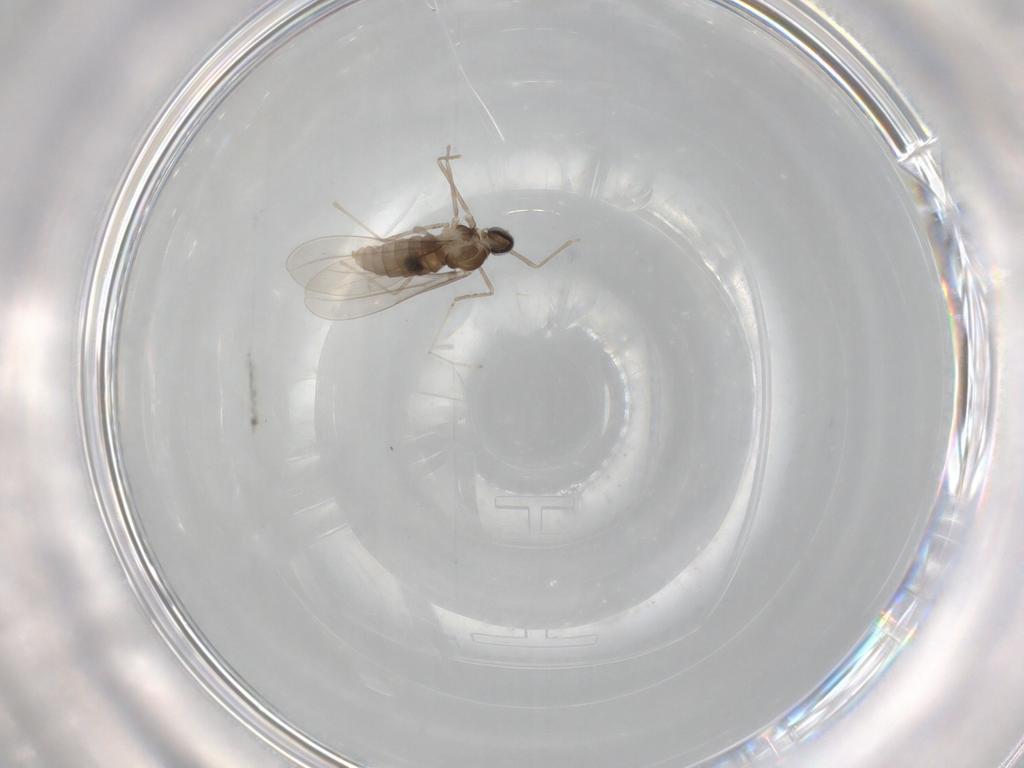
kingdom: Animalia
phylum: Arthropoda
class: Insecta
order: Diptera
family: Cecidomyiidae
